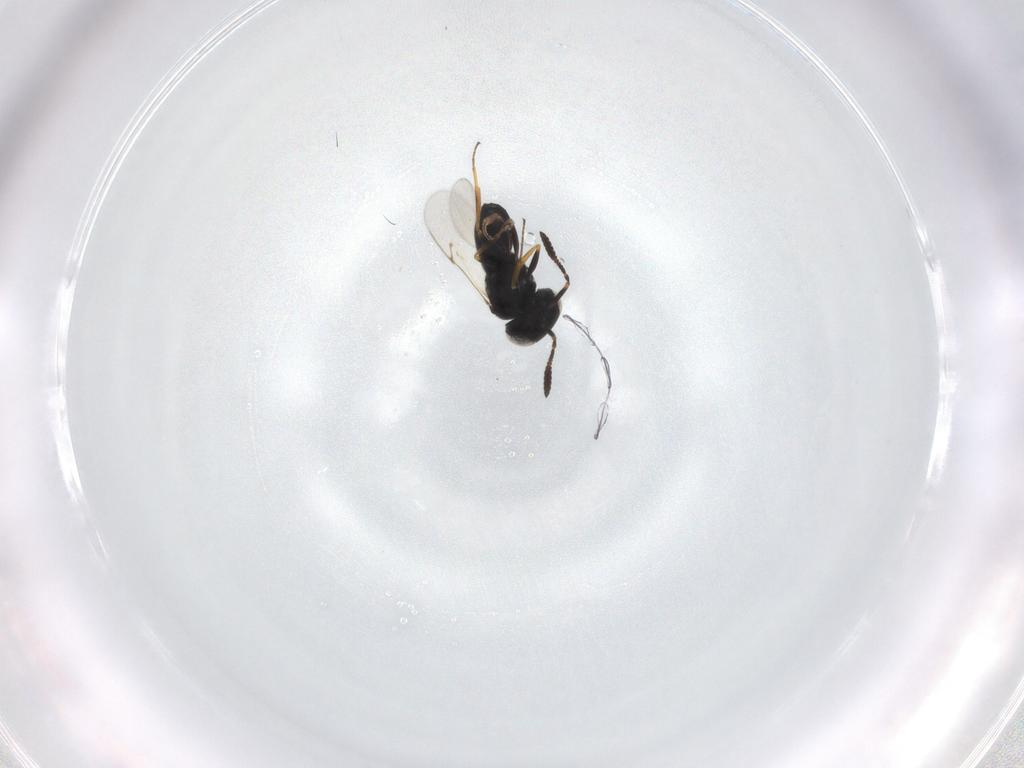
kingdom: Animalia
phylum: Arthropoda
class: Insecta
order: Hymenoptera
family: Scelionidae
